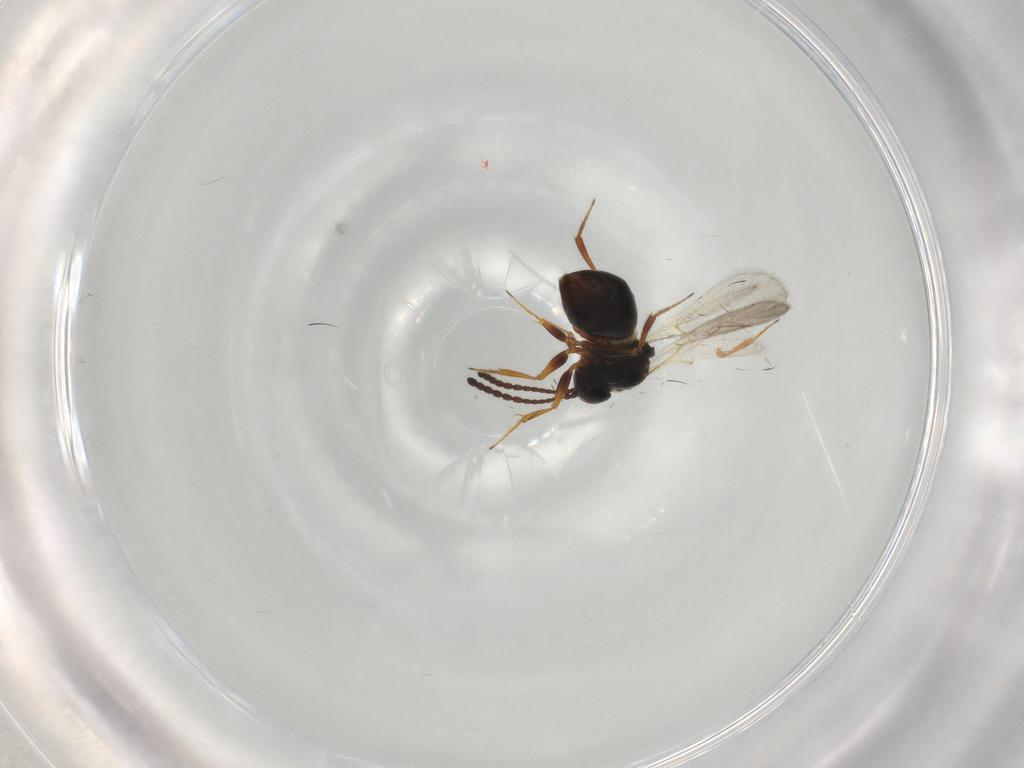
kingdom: Animalia
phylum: Arthropoda
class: Insecta
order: Hymenoptera
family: Figitidae
